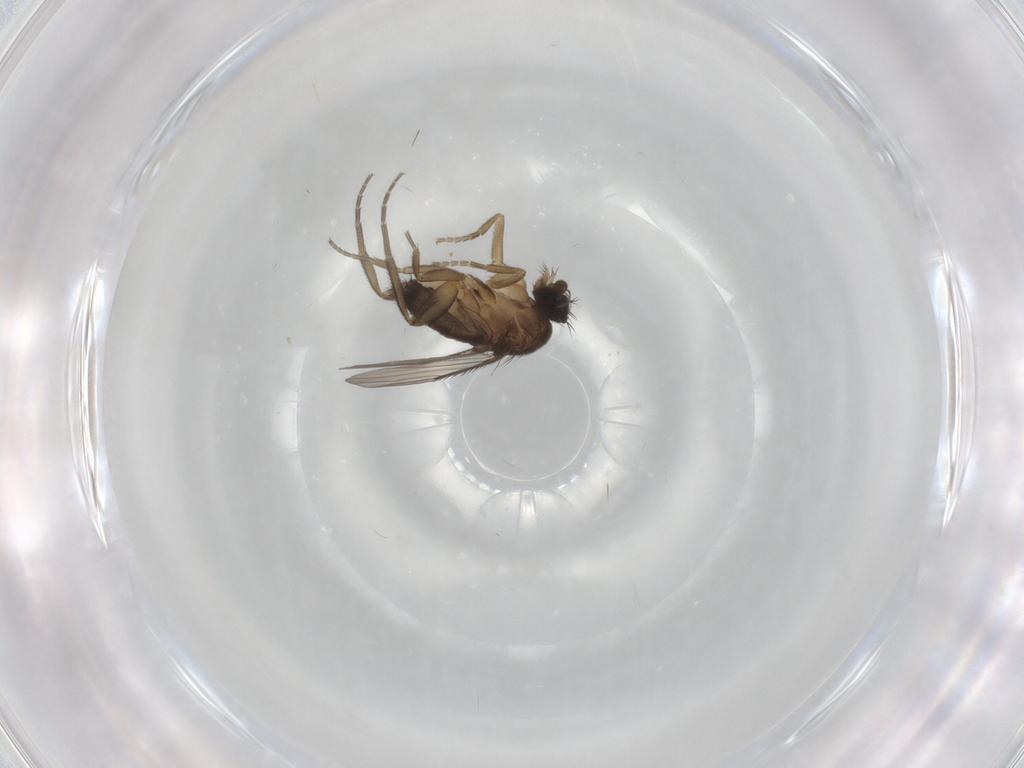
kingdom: Animalia
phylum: Arthropoda
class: Insecta
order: Diptera
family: Phoridae
